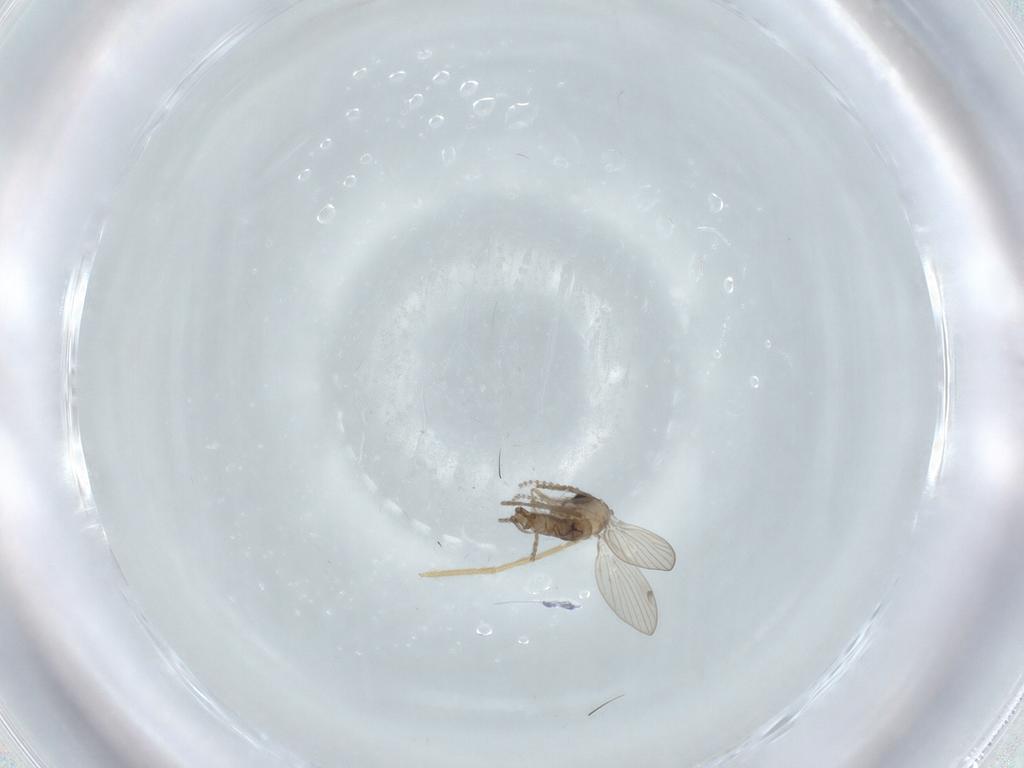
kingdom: Animalia
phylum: Arthropoda
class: Insecta
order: Diptera
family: Psychodidae
